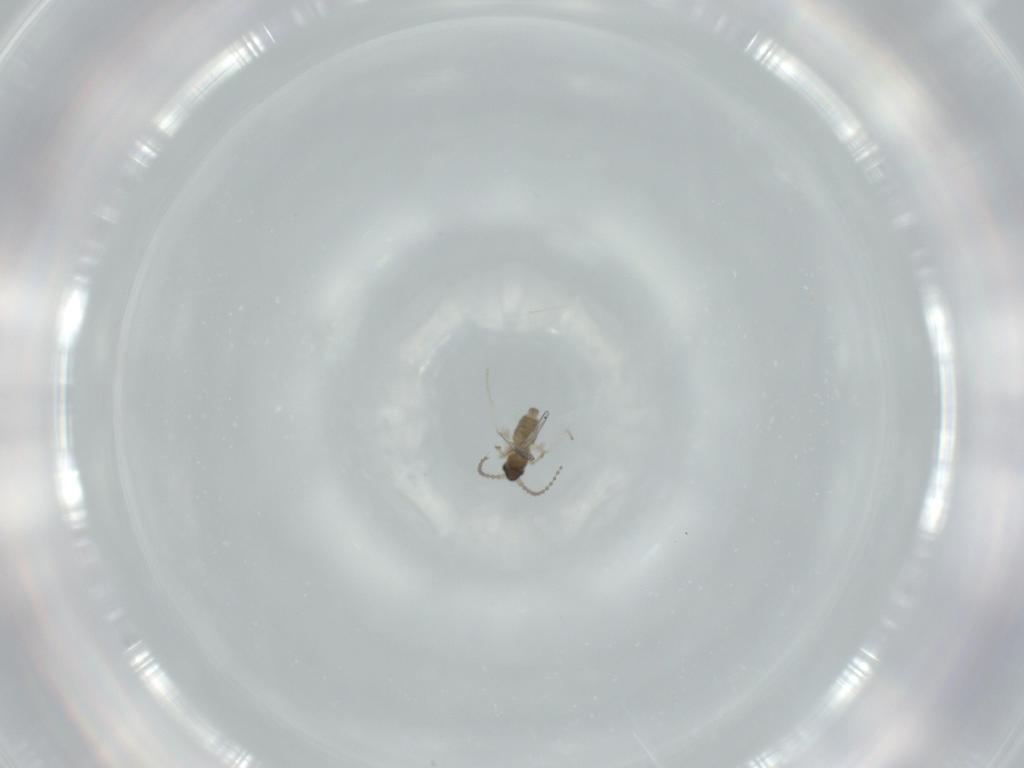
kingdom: Animalia
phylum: Arthropoda
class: Insecta
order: Diptera
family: Cecidomyiidae
